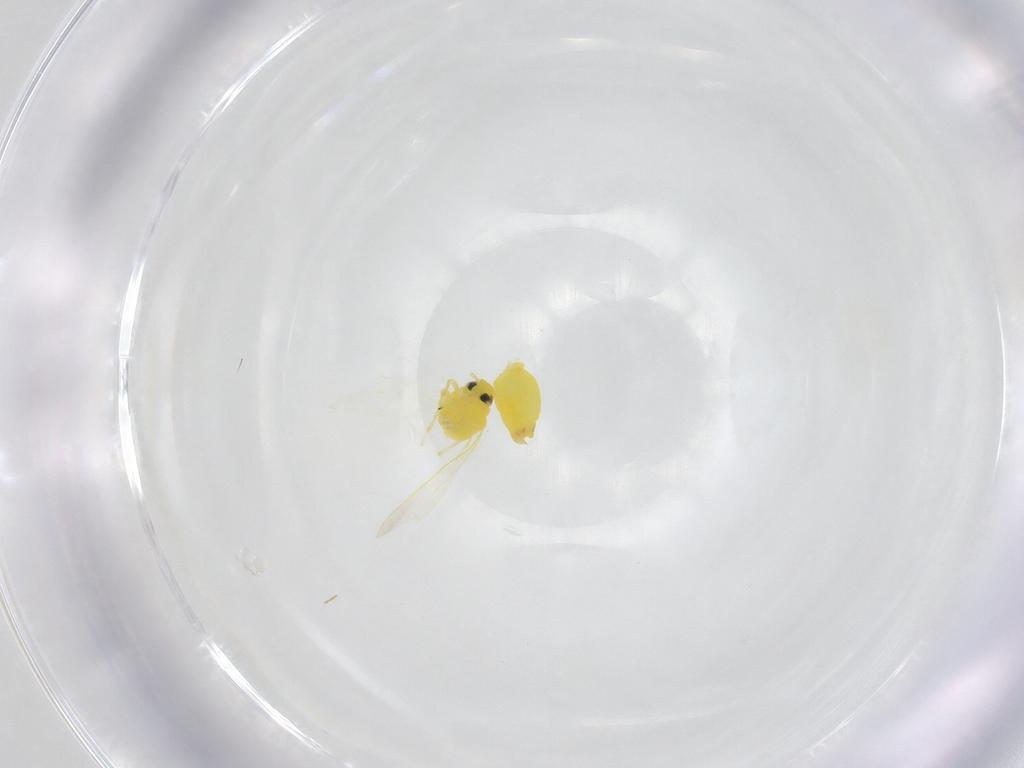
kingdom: Animalia
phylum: Arthropoda
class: Insecta
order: Hemiptera
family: Aleyrodidae
